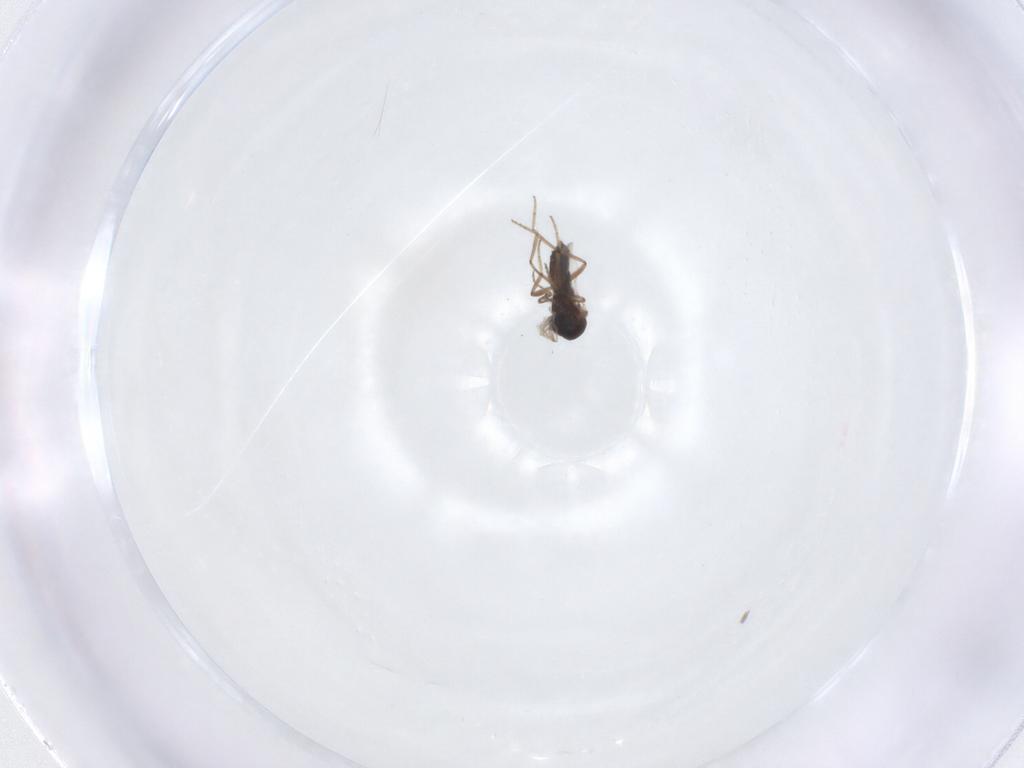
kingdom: Animalia
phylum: Arthropoda
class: Insecta
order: Diptera
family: Ceratopogonidae
